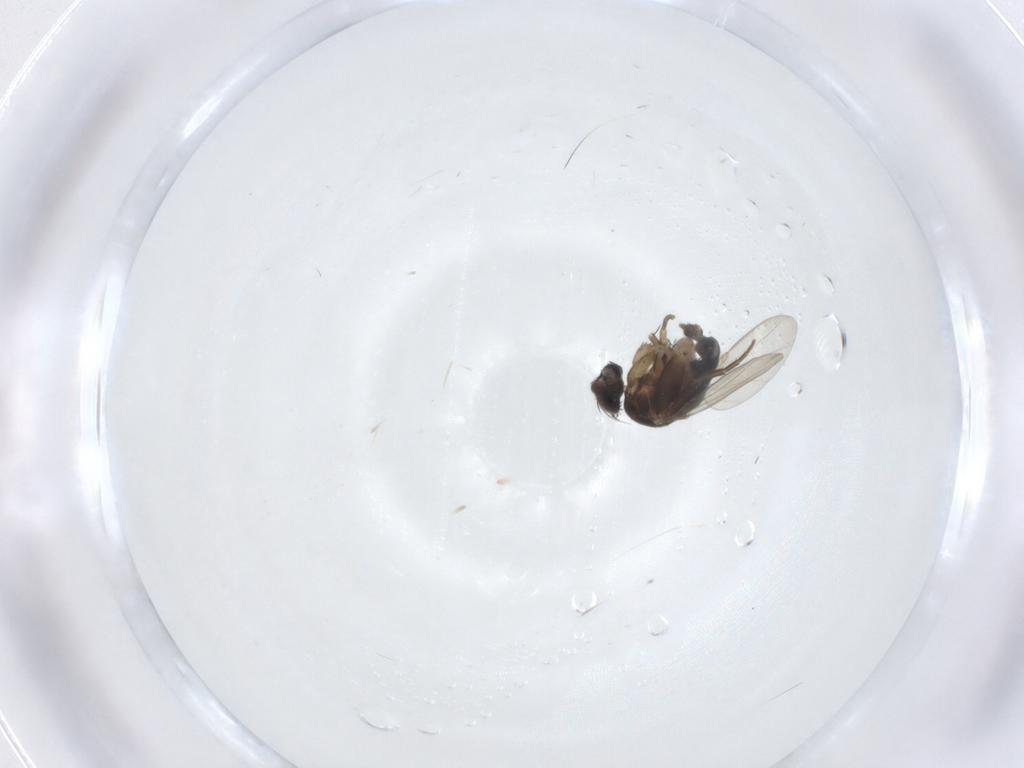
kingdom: Animalia
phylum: Arthropoda
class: Insecta
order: Diptera
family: Phoridae
